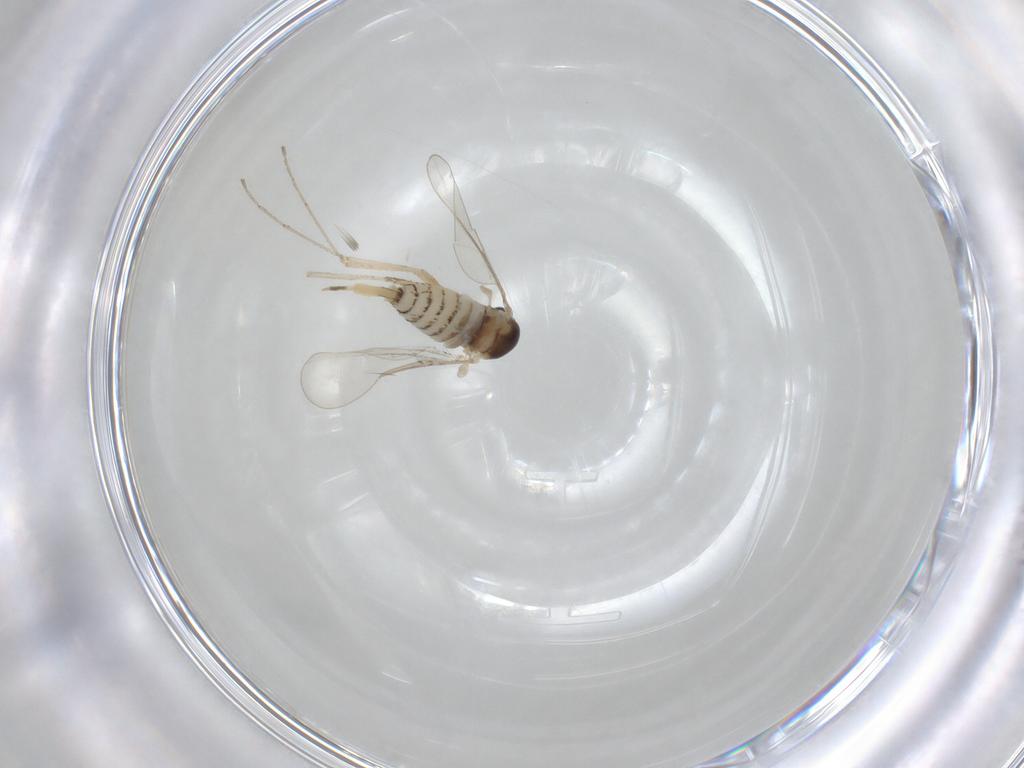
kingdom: Animalia
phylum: Arthropoda
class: Insecta
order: Diptera
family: Cecidomyiidae
